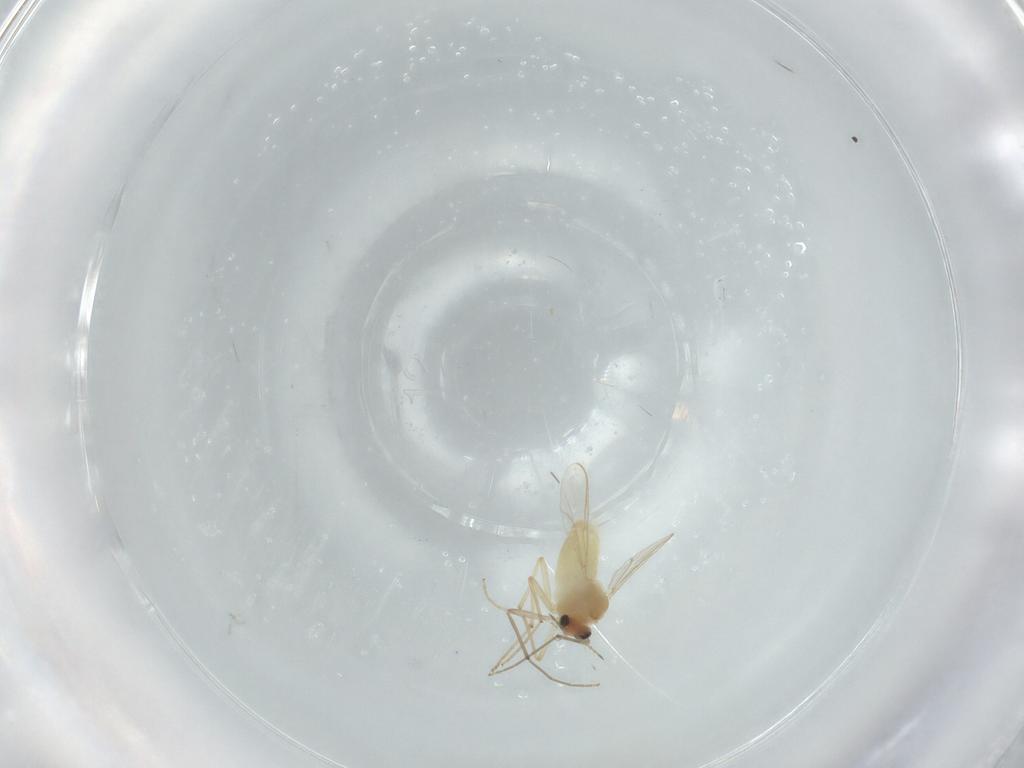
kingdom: Animalia
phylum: Arthropoda
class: Insecta
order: Diptera
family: Chironomidae
